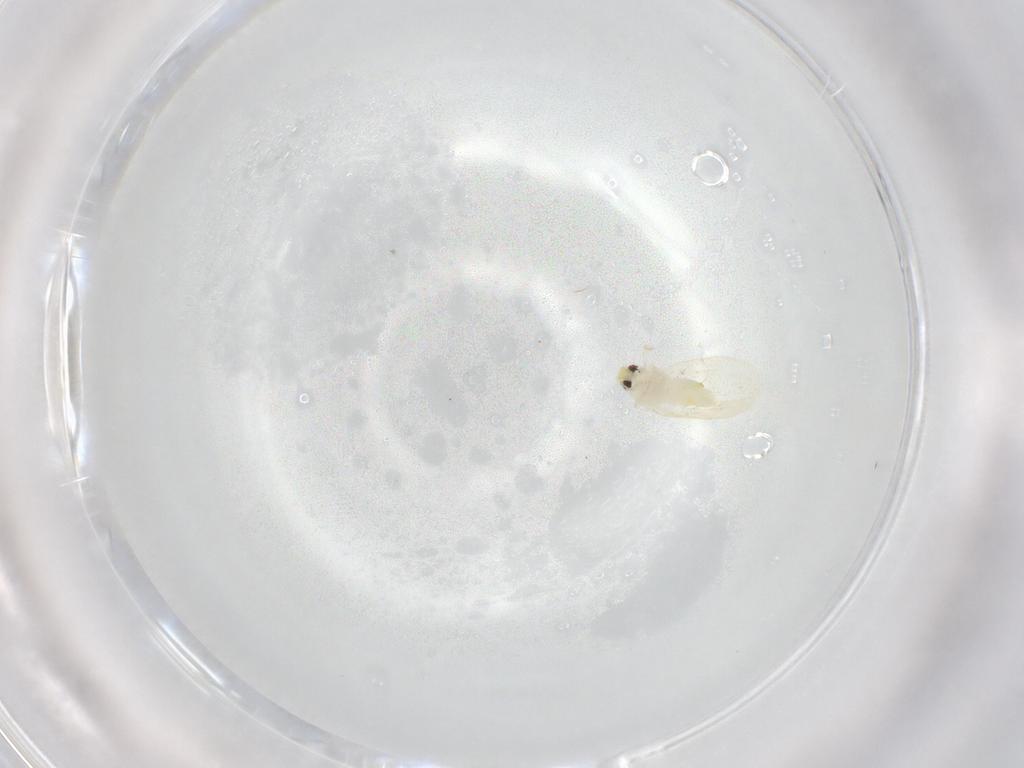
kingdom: Animalia
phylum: Arthropoda
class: Insecta
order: Hemiptera
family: Aleyrodidae
